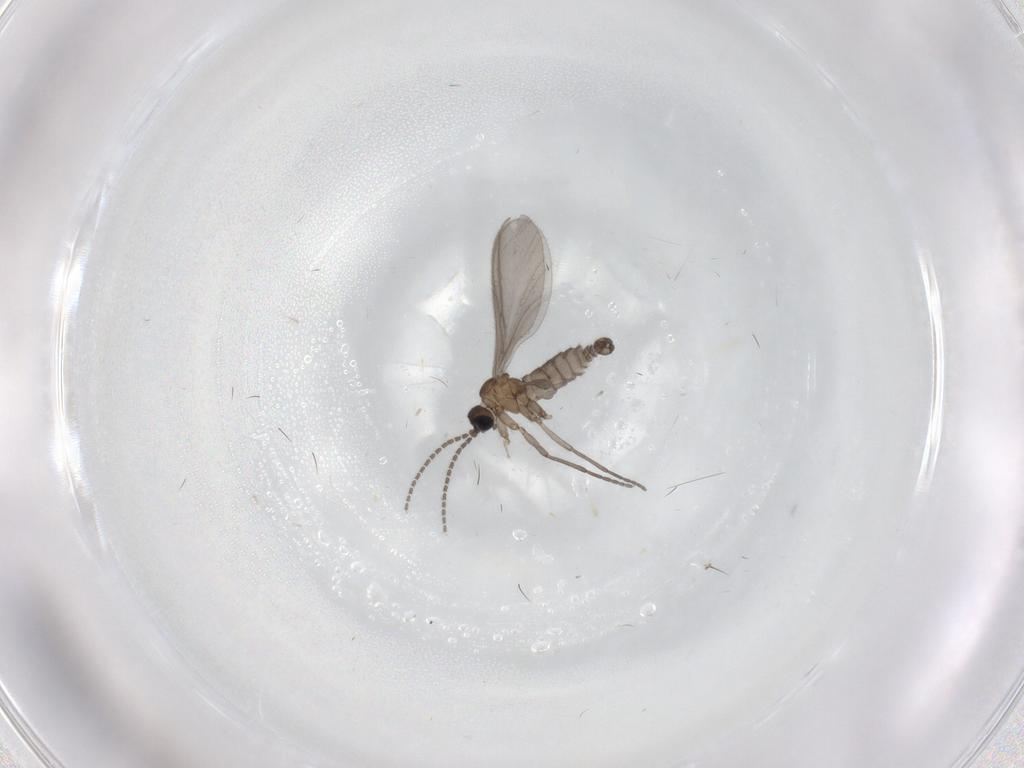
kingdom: Animalia
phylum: Arthropoda
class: Insecta
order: Diptera
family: Sciaridae
